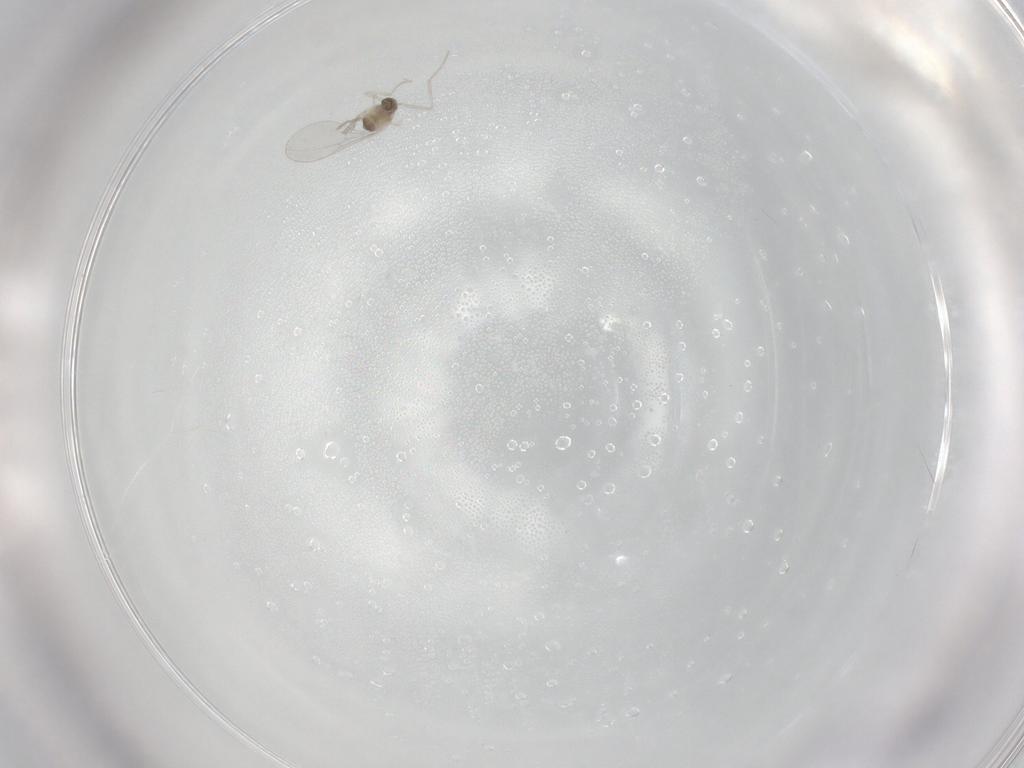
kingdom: Animalia
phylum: Arthropoda
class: Insecta
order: Diptera
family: Cecidomyiidae
